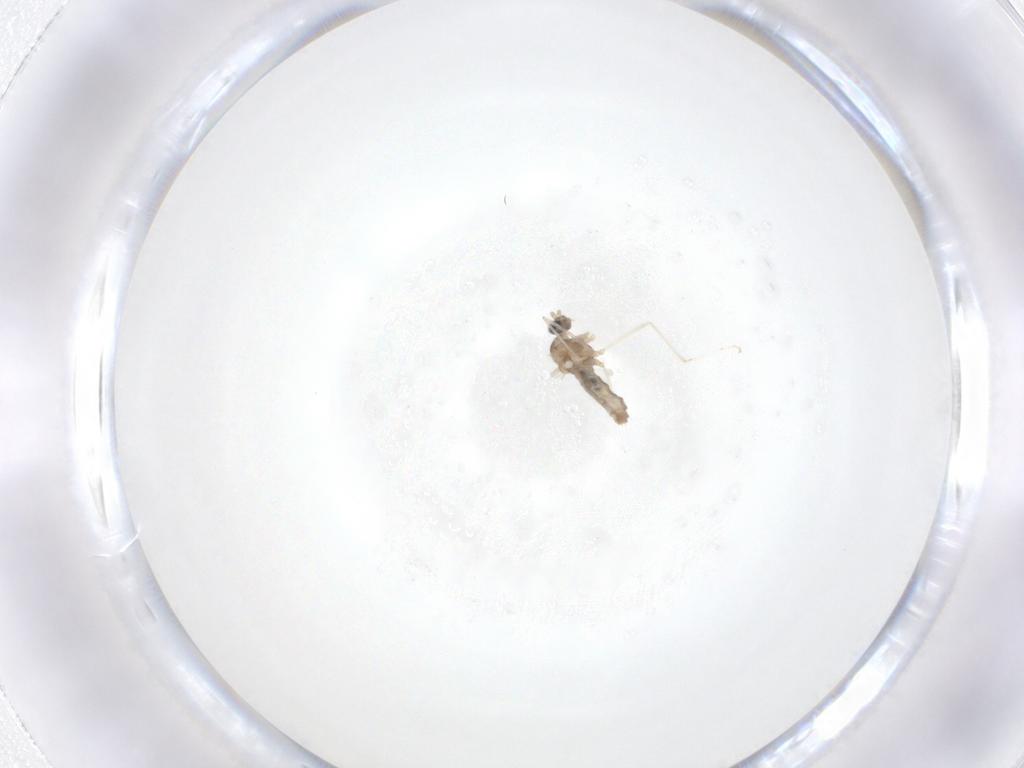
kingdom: Animalia
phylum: Arthropoda
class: Insecta
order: Diptera
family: Cecidomyiidae
